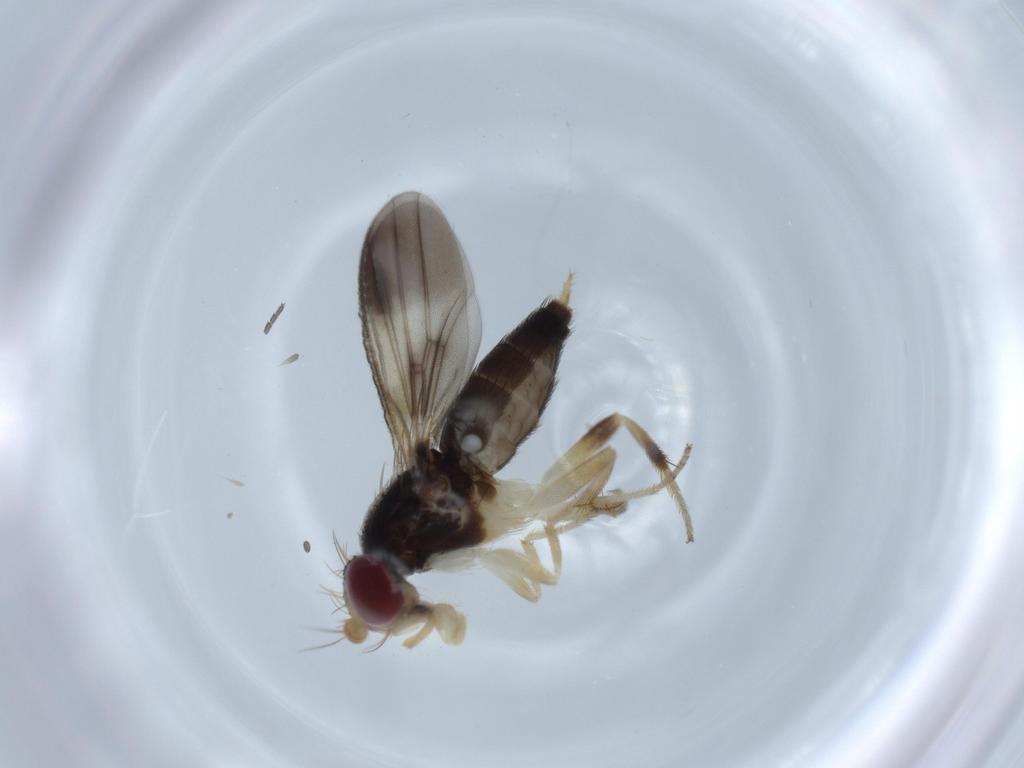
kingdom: Animalia
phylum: Arthropoda
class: Insecta
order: Diptera
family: Clusiidae
